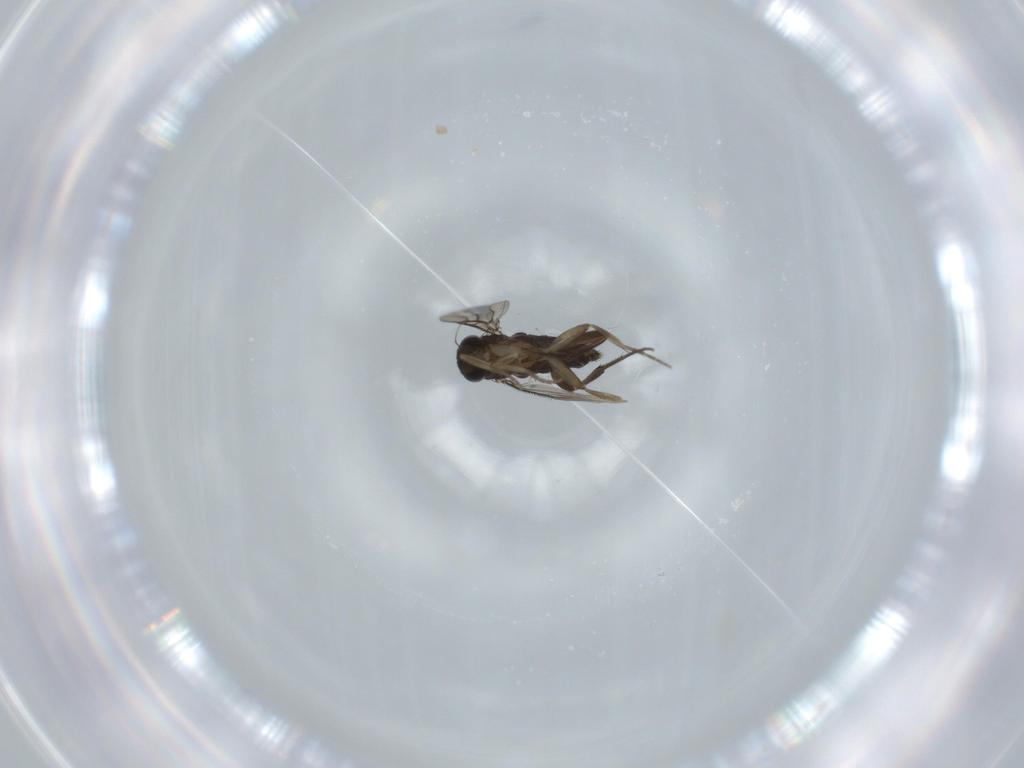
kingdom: Animalia
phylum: Arthropoda
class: Insecta
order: Diptera
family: Phoridae
